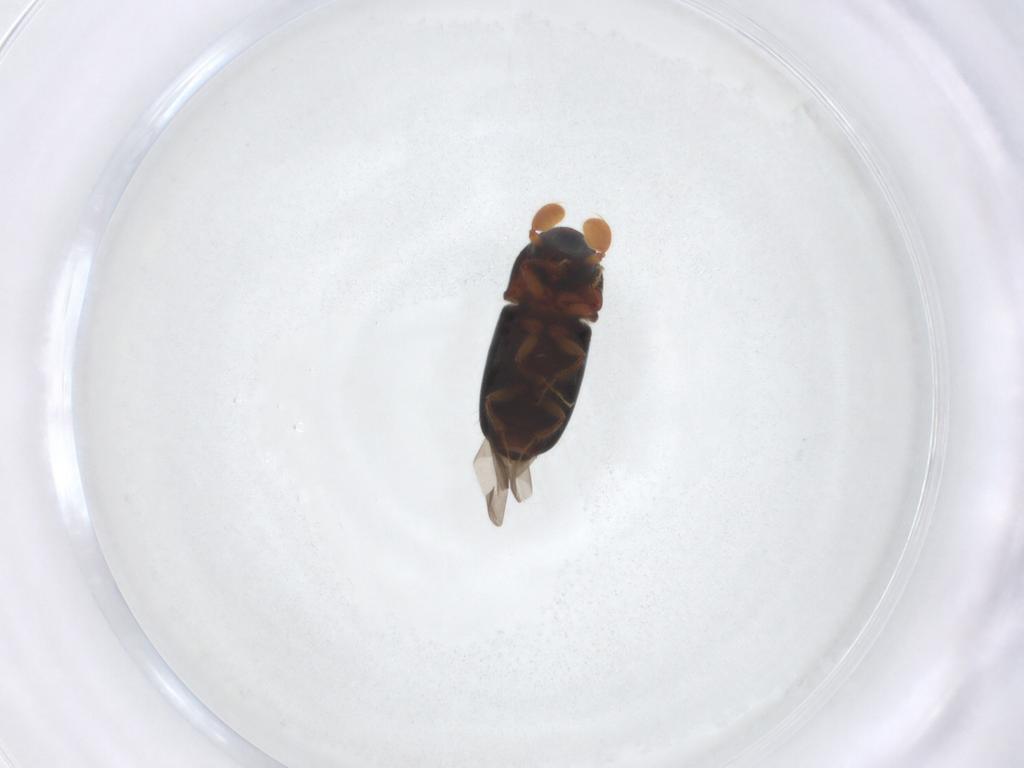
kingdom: Animalia
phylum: Arthropoda
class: Insecta
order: Coleoptera
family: Curculionidae
